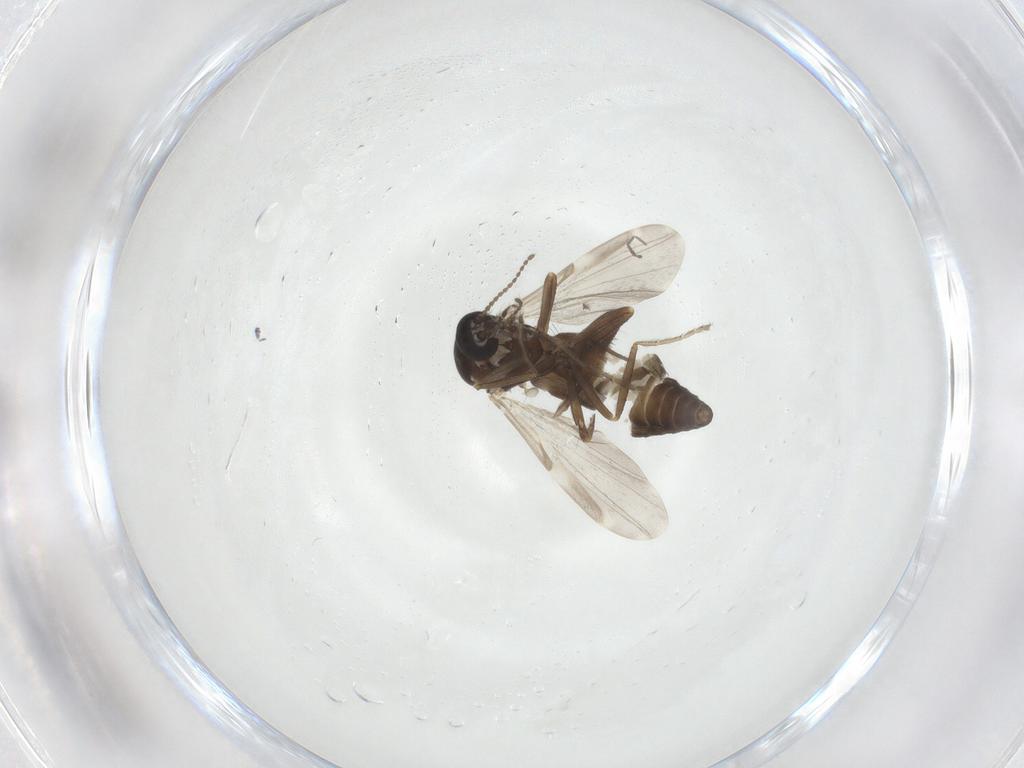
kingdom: Animalia
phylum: Arthropoda
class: Insecta
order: Diptera
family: Ceratopogonidae
